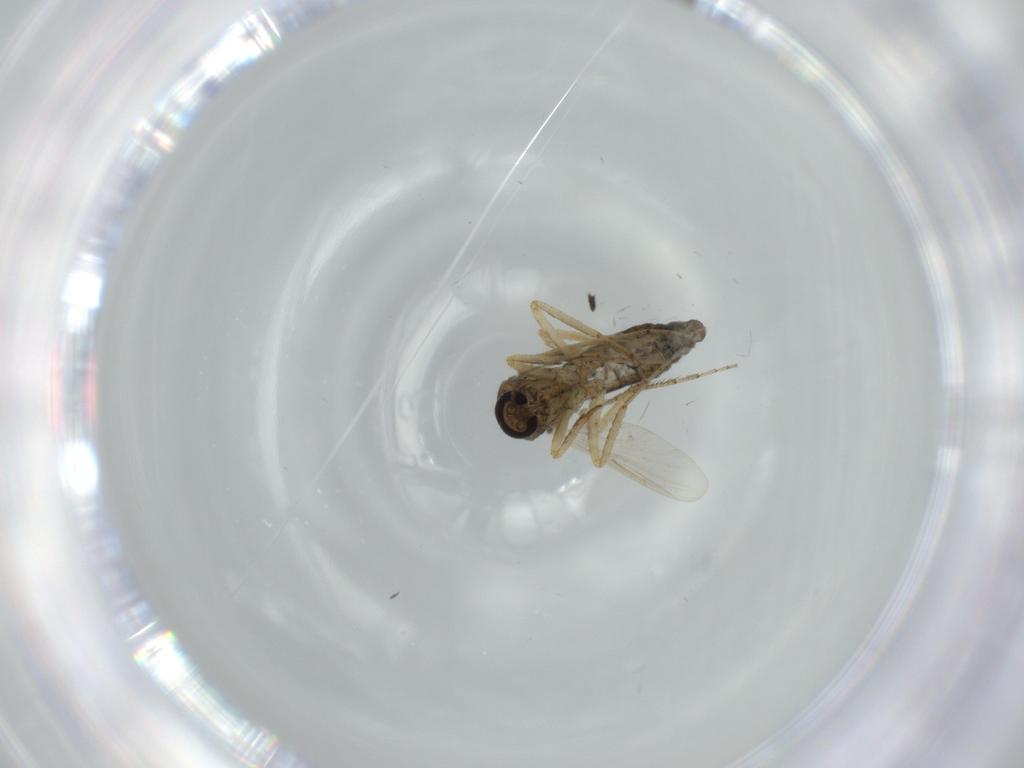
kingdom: Animalia
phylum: Arthropoda
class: Insecta
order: Diptera
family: Ceratopogonidae
